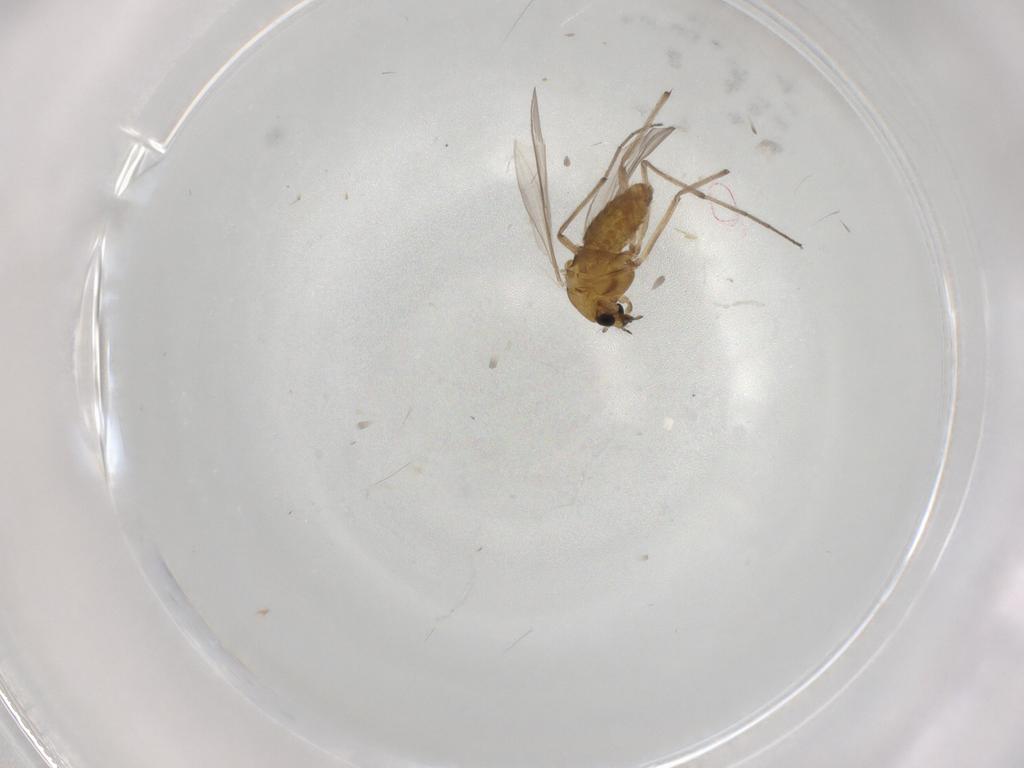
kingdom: Animalia
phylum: Arthropoda
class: Insecta
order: Diptera
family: Chironomidae
